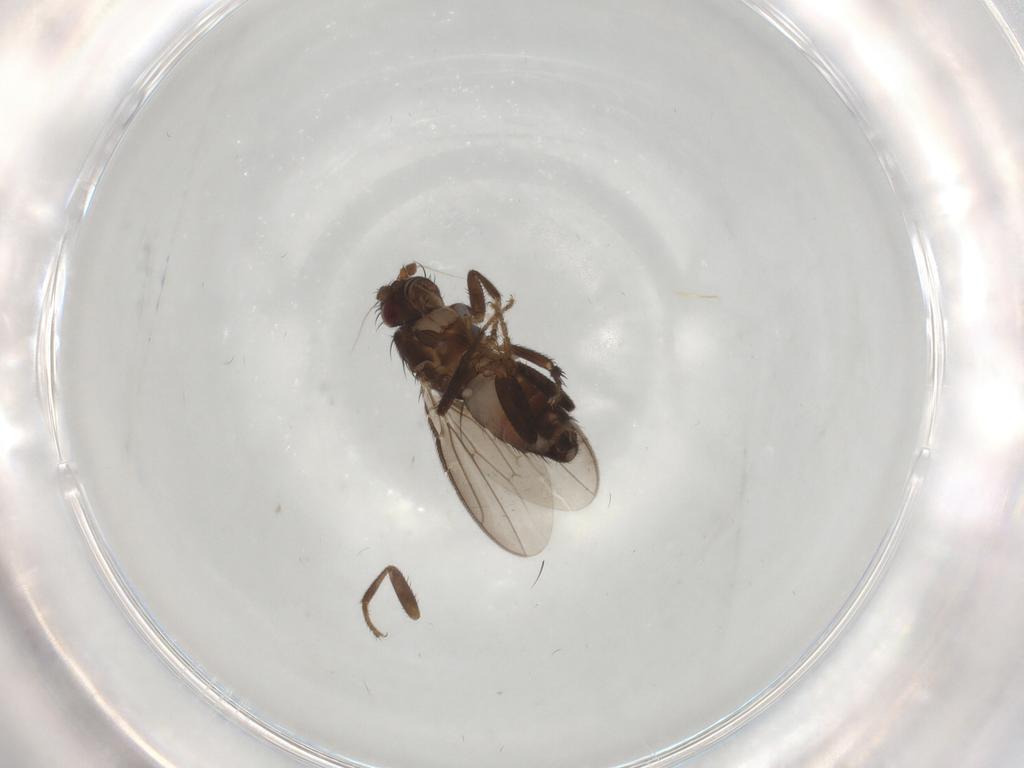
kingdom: Animalia
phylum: Arthropoda
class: Insecta
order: Diptera
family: Sphaeroceridae
